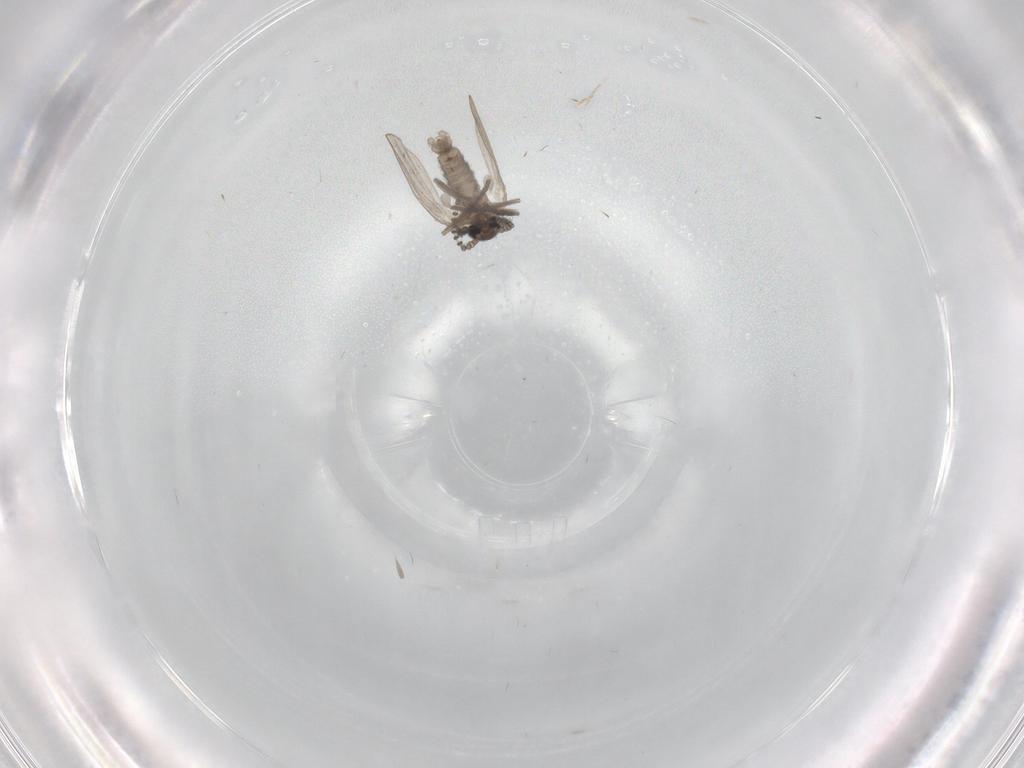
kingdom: Animalia
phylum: Arthropoda
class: Insecta
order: Diptera
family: Psychodidae
